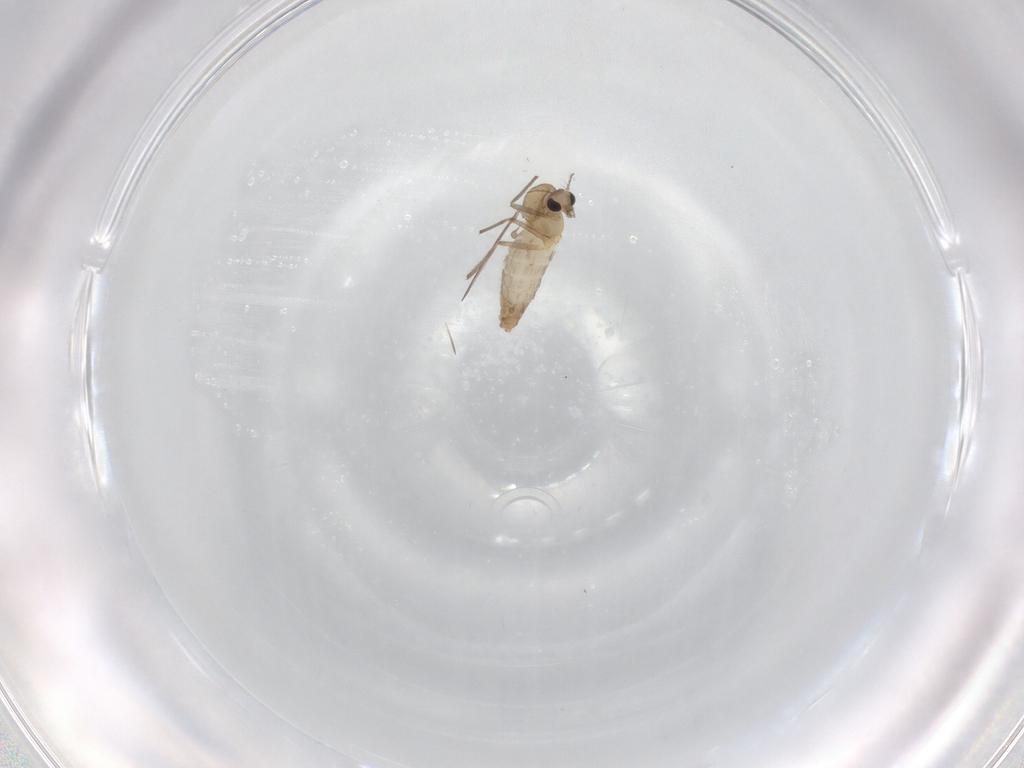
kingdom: Animalia
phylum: Arthropoda
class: Insecta
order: Diptera
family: Chironomidae
